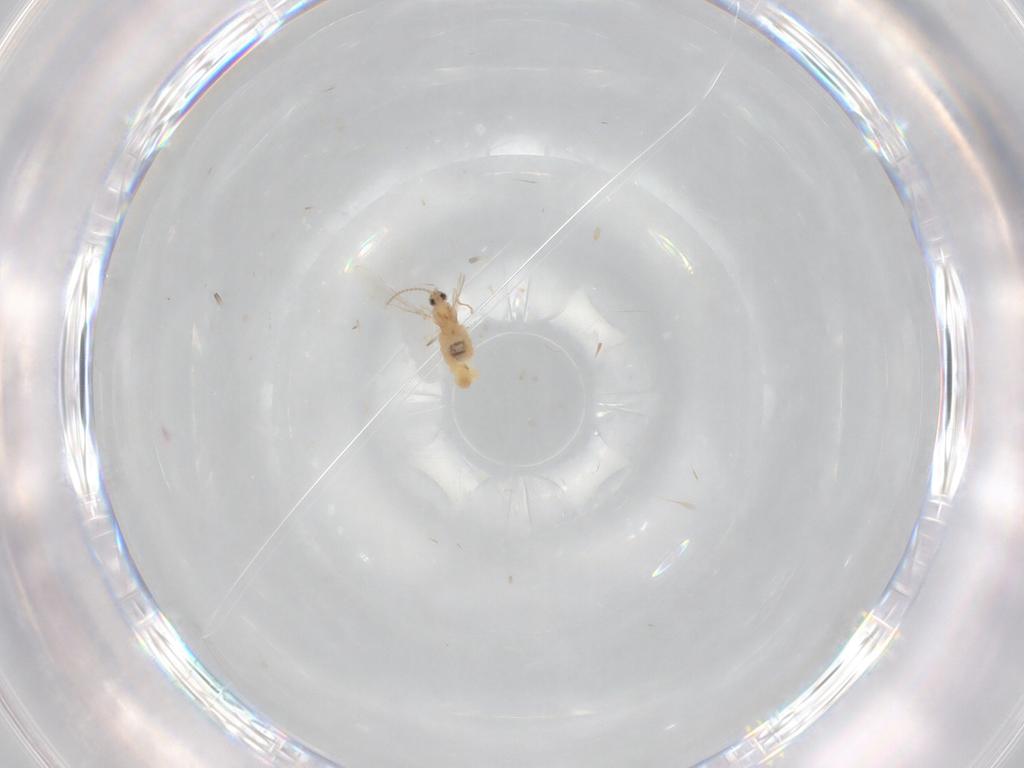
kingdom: Animalia
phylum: Arthropoda
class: Insecta
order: Diptera
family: Cecidomyiidae
